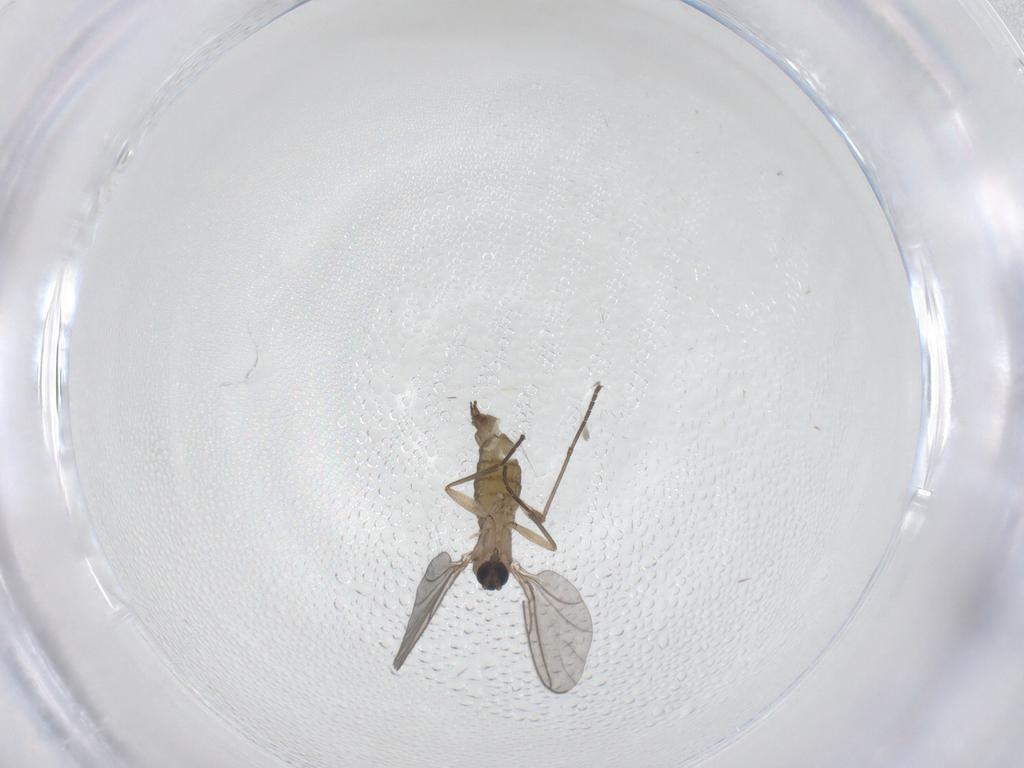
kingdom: Animalia
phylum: Arthropoda
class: Insecta
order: Diptera
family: Sciaridae
